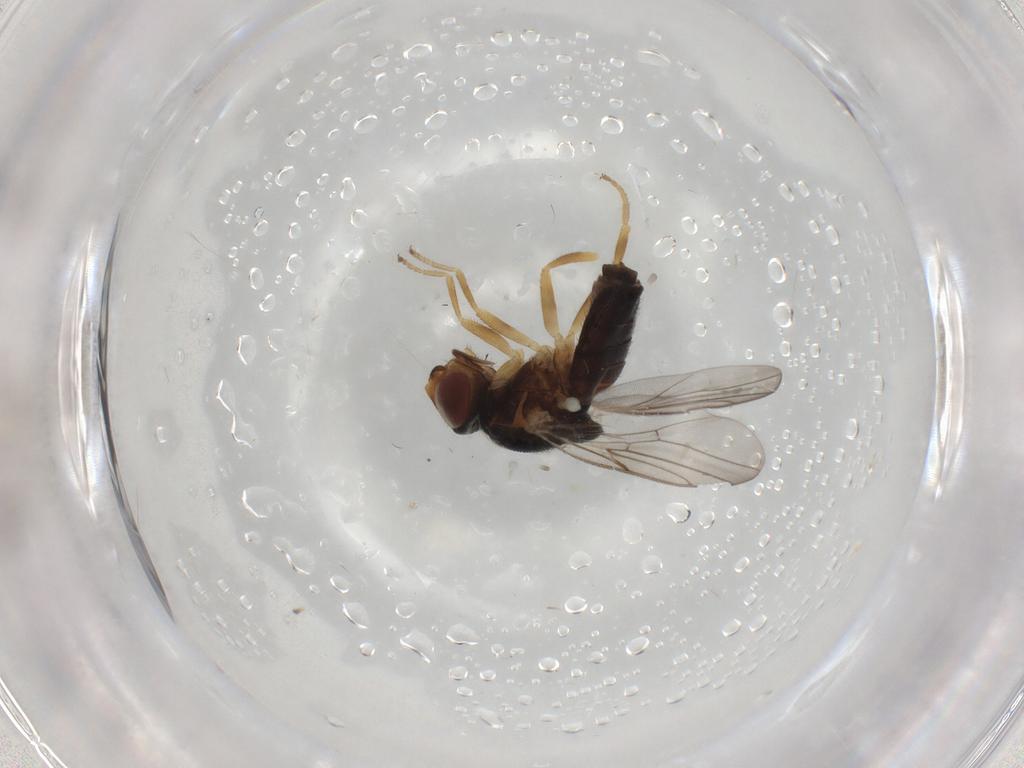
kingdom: Animalia
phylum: Arthropoda
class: Insecta
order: Diptera
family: Chloropidae
